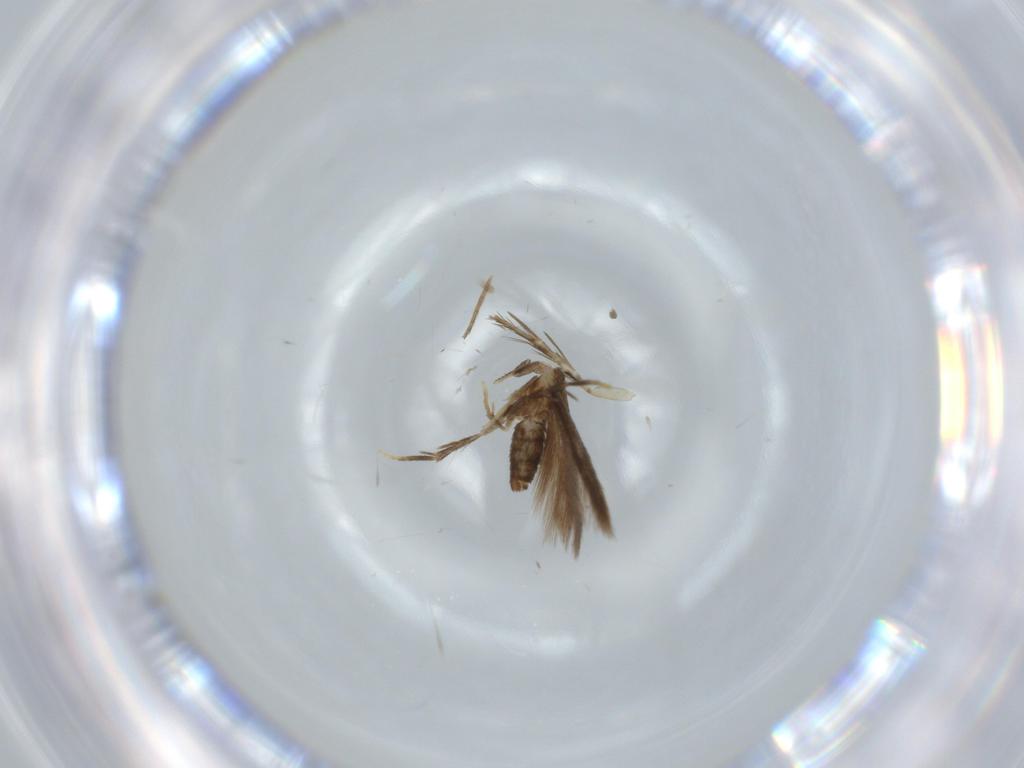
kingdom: Animalia
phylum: Arthropoda
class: Insecta
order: Lepidoptera
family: Nepticulidae
